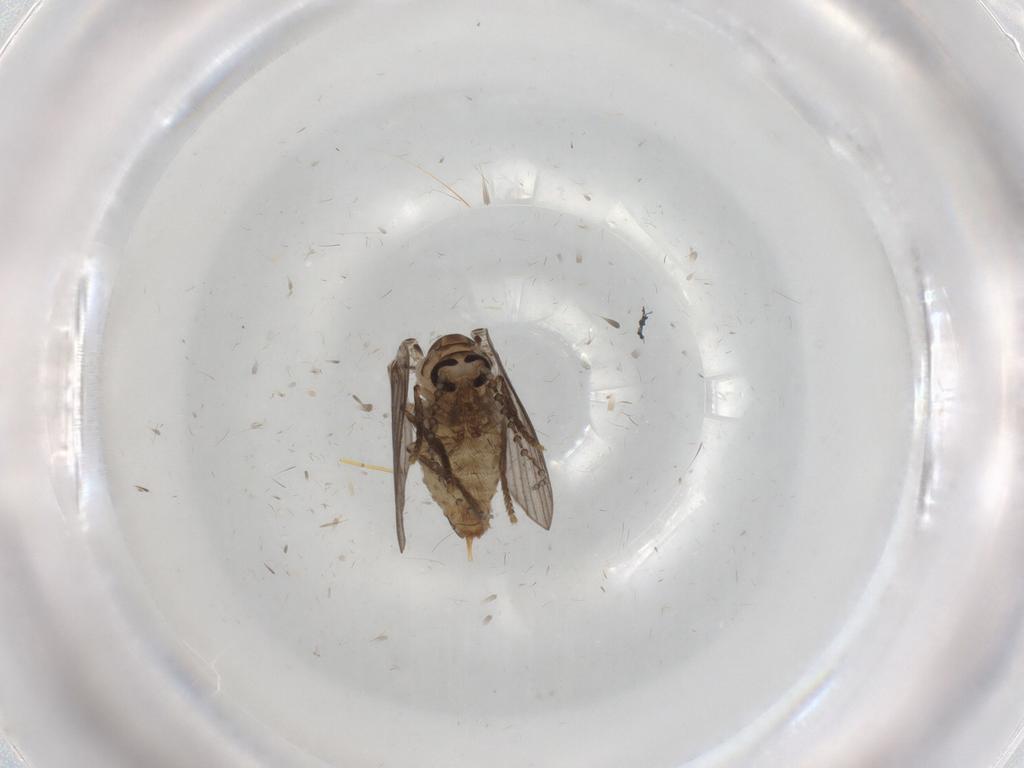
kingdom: Animalia
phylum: Arthropoda
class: Insecta
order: Diptera
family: Psychodidae
